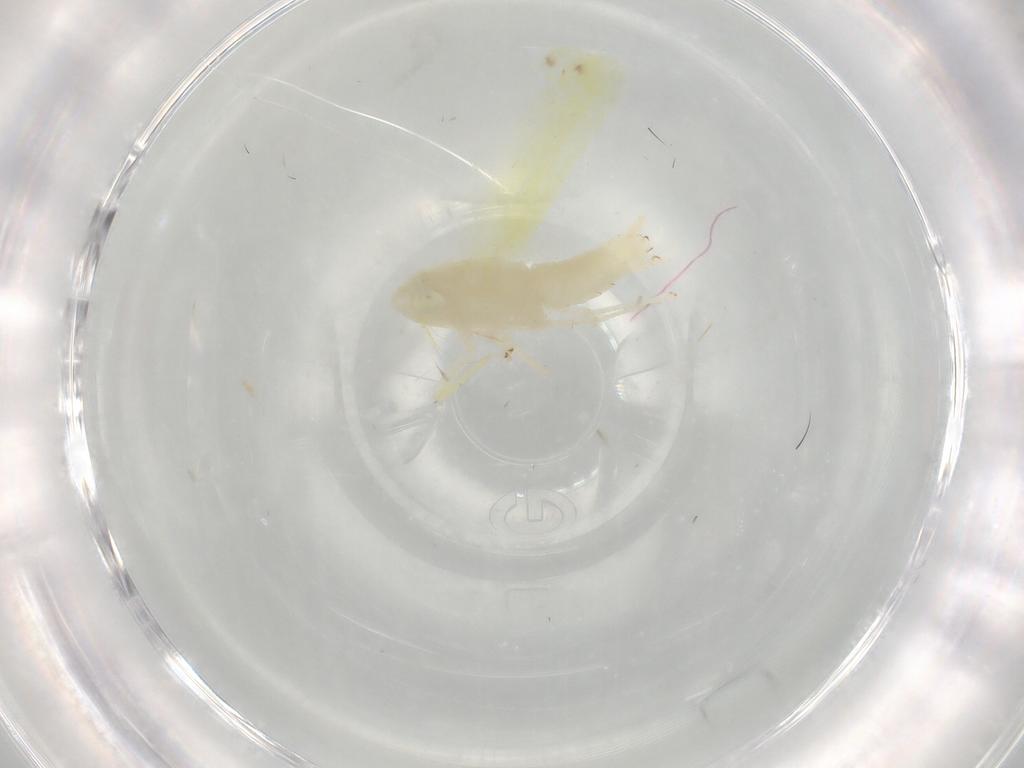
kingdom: Animalia
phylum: Arthropoda
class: Insecta
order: Hemiptera
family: Cicadellidae
